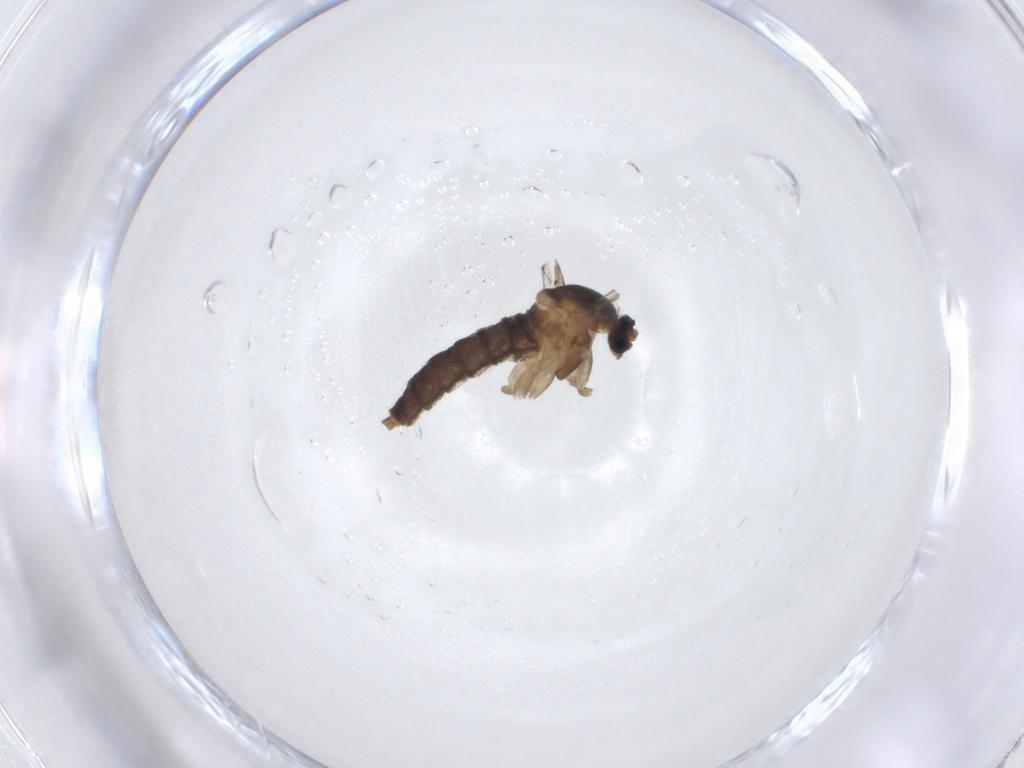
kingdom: Animalia
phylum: Arthropoda
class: Insecta
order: Diptera
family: Cecidomyiidae
